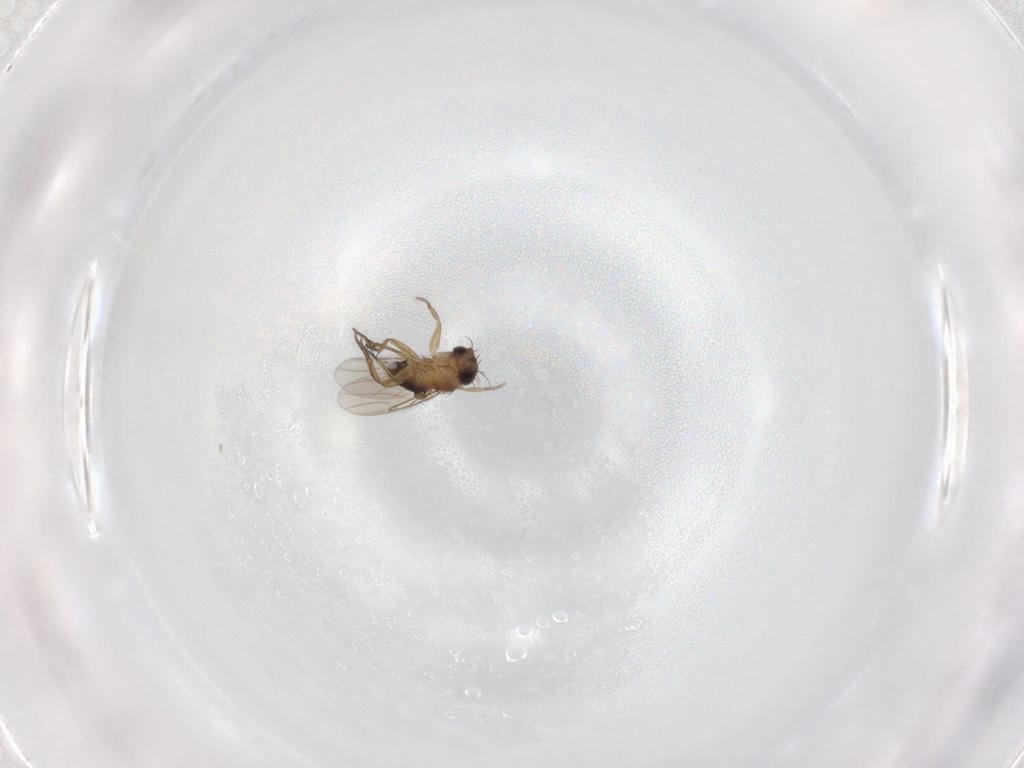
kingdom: Animalia
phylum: Arthropoda
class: Insecta
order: Diptera
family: Phoridae
